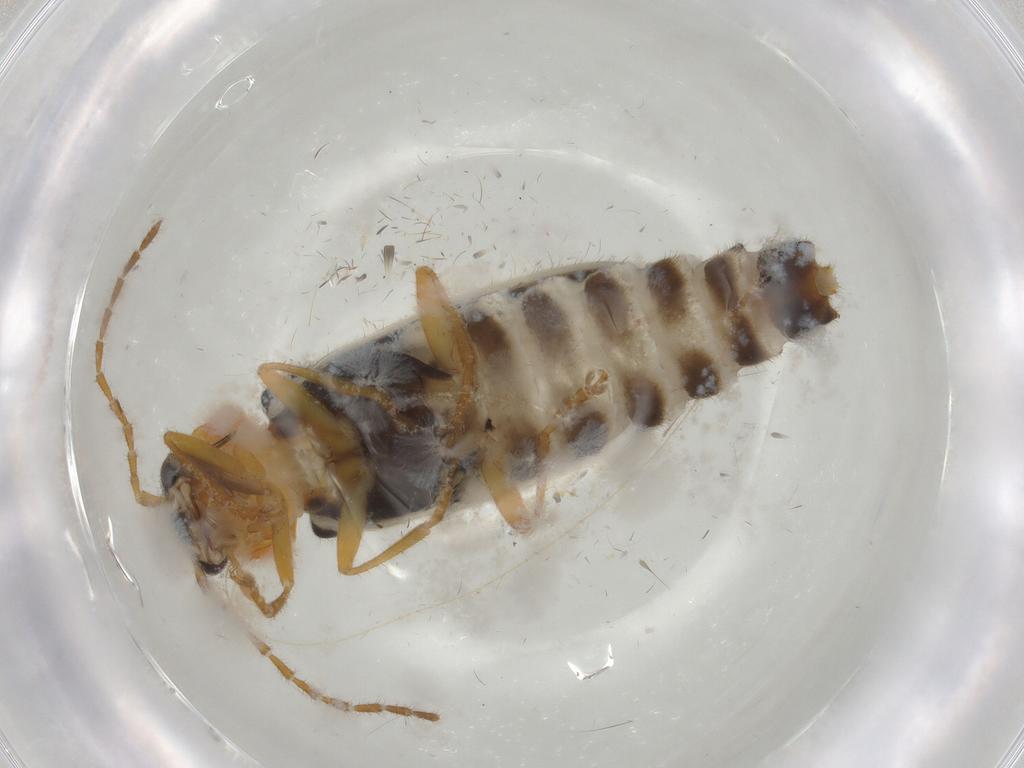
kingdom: Animalia
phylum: Arthropoda
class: Insecta
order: Coleoptera
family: Cantharidae
